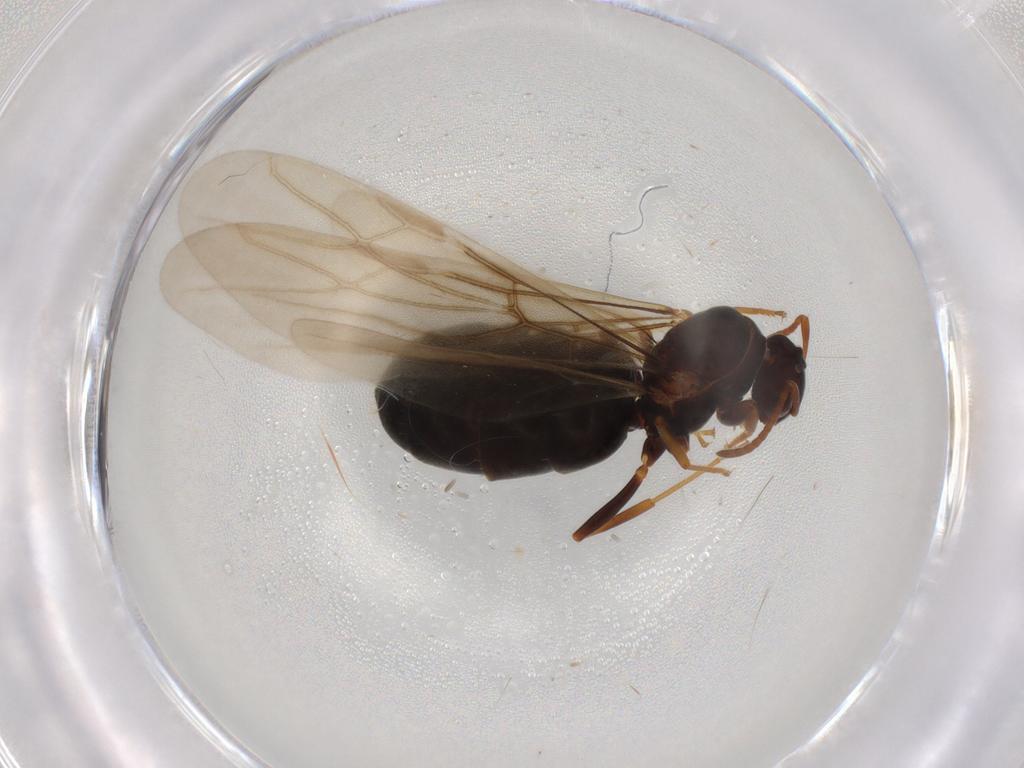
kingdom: Animalia
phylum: Arthropoda
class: Insecta
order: Hymenoptera
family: Formicidae
